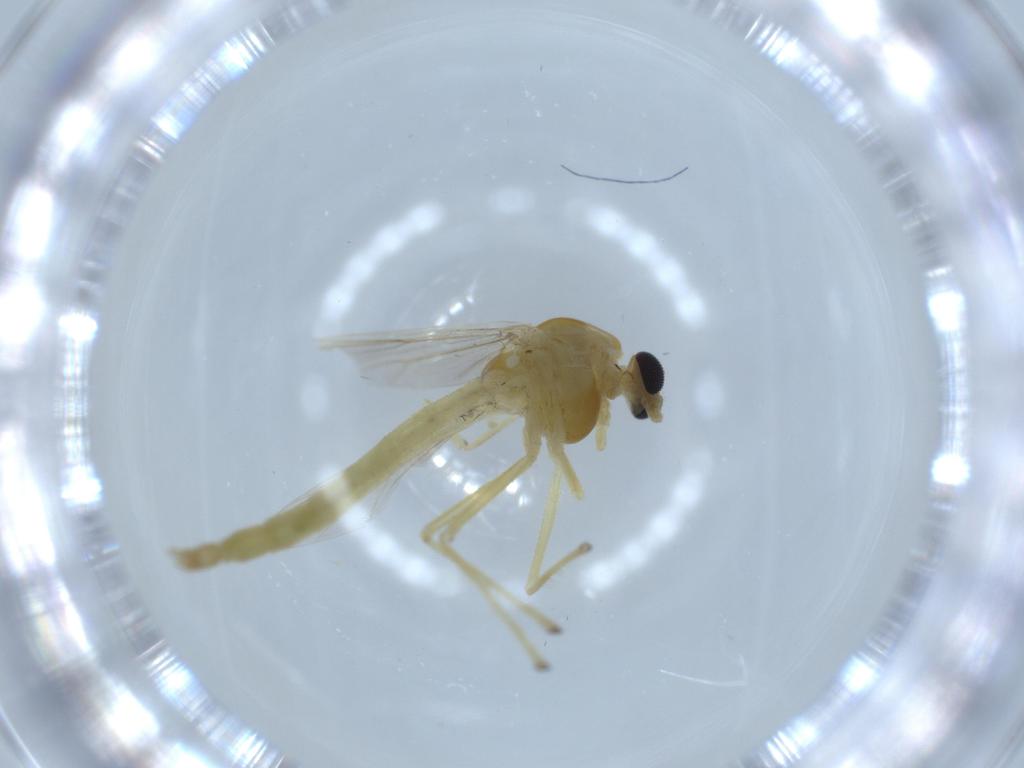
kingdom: Animalia
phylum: Arthropoda
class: Insecta
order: Diptera
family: Chironomidae
